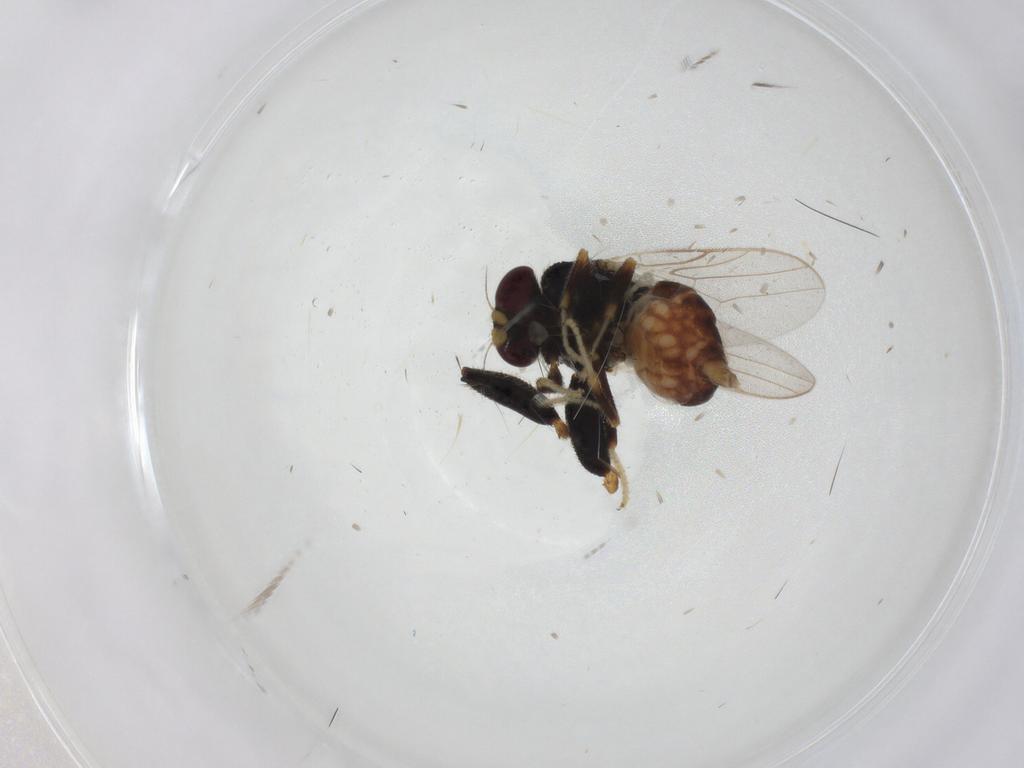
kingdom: Animalia
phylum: Arthropoda
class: Insecta
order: Diptera
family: Chloropidae
